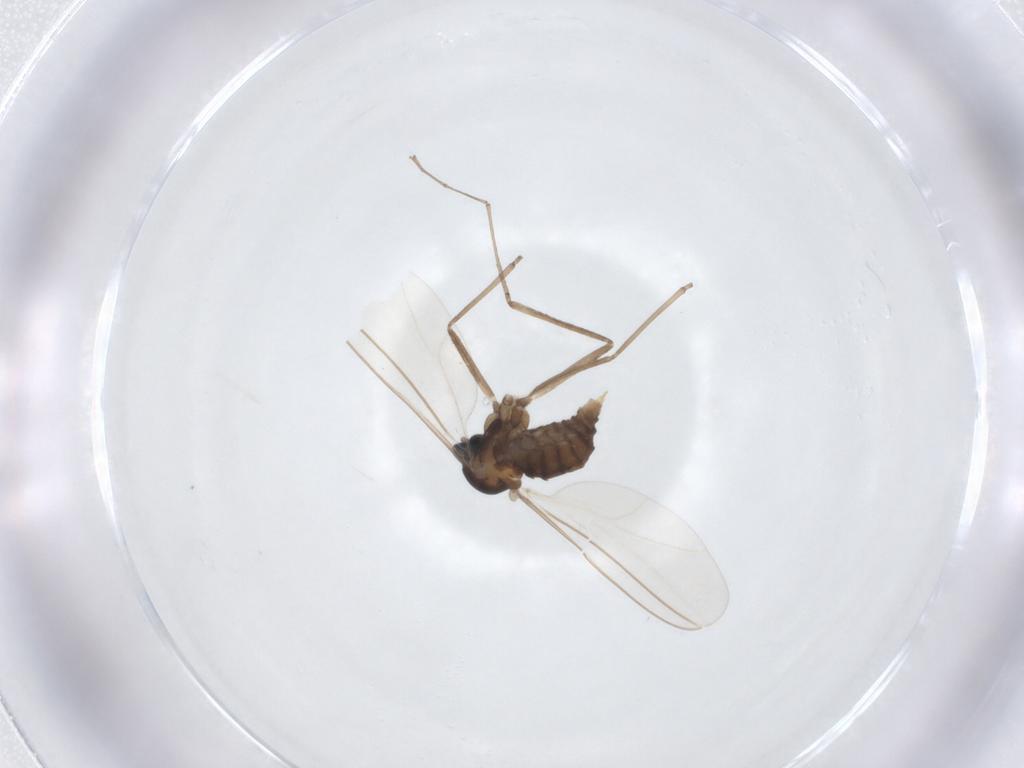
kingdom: Animalia
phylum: Arthropoda
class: Insecta
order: Diptera
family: Cecidomyiidae
